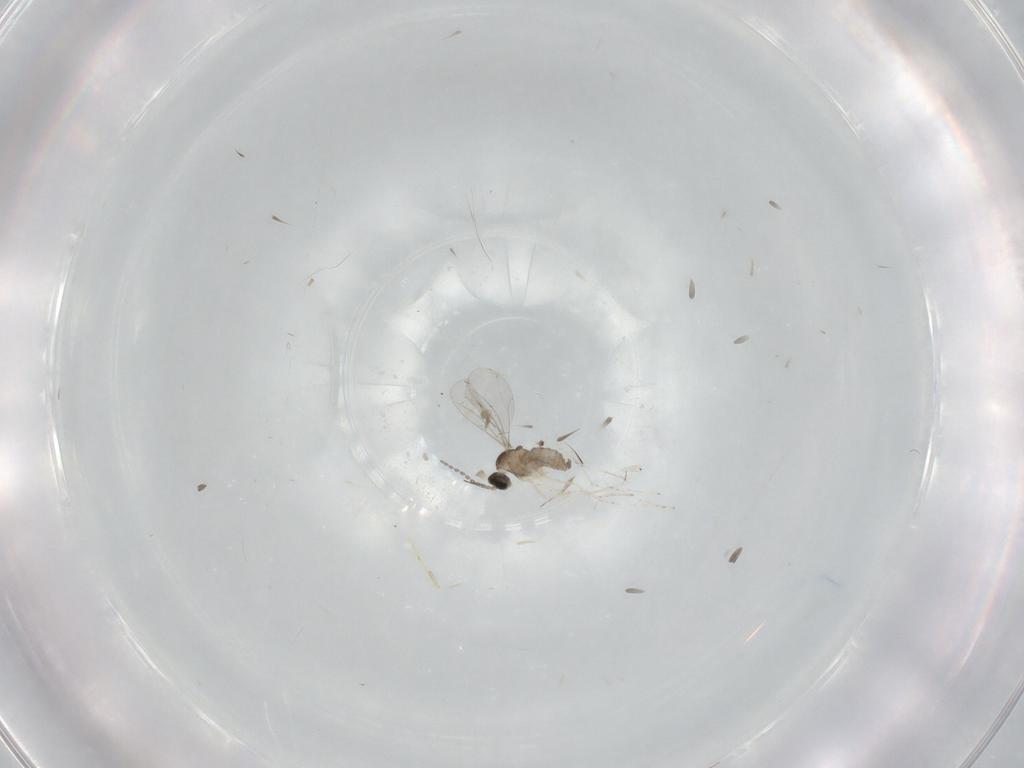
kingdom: Animalia
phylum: Arthropoda
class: Insecta
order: Diptera
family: Cecidomyiidae
